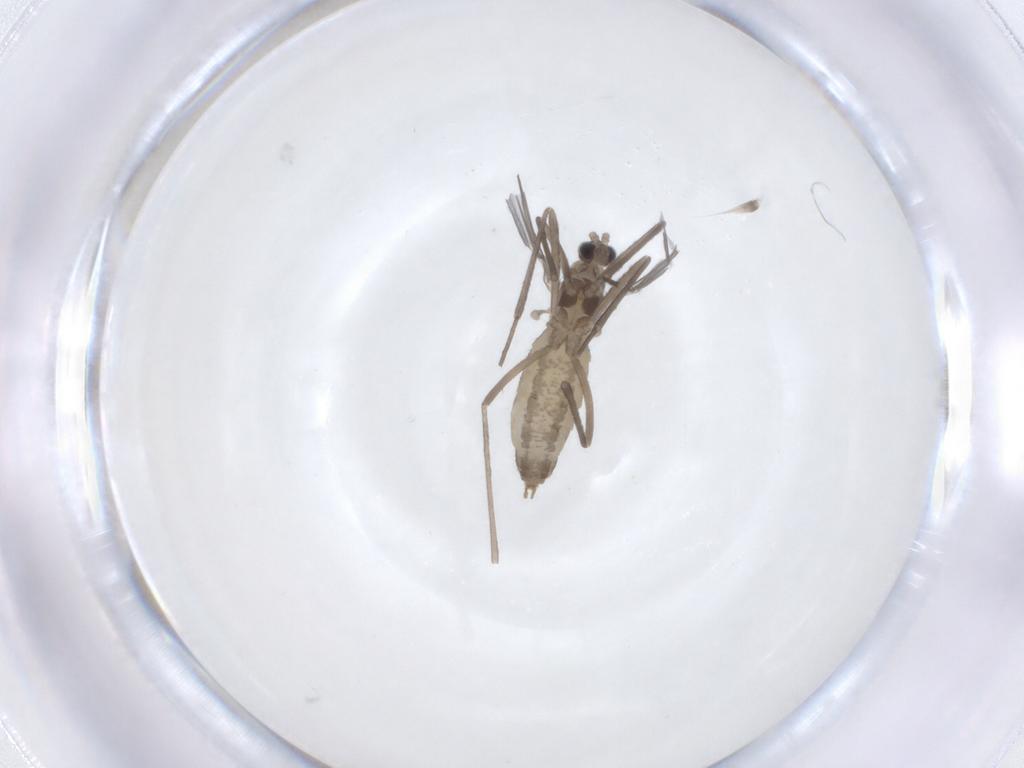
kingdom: Animalia
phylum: Arthropoda
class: Insecta
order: Diptera
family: Cecidomyiidae
